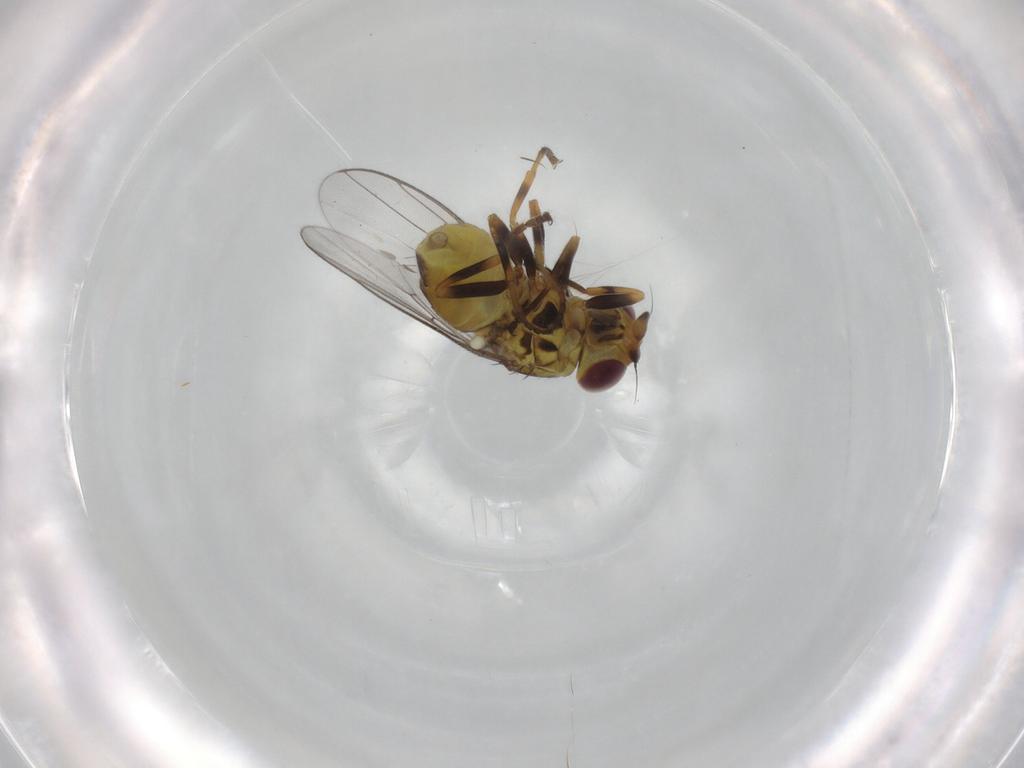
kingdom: Animalia
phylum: Arthropoda
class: Insecta
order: Diptera
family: Chloropidae
